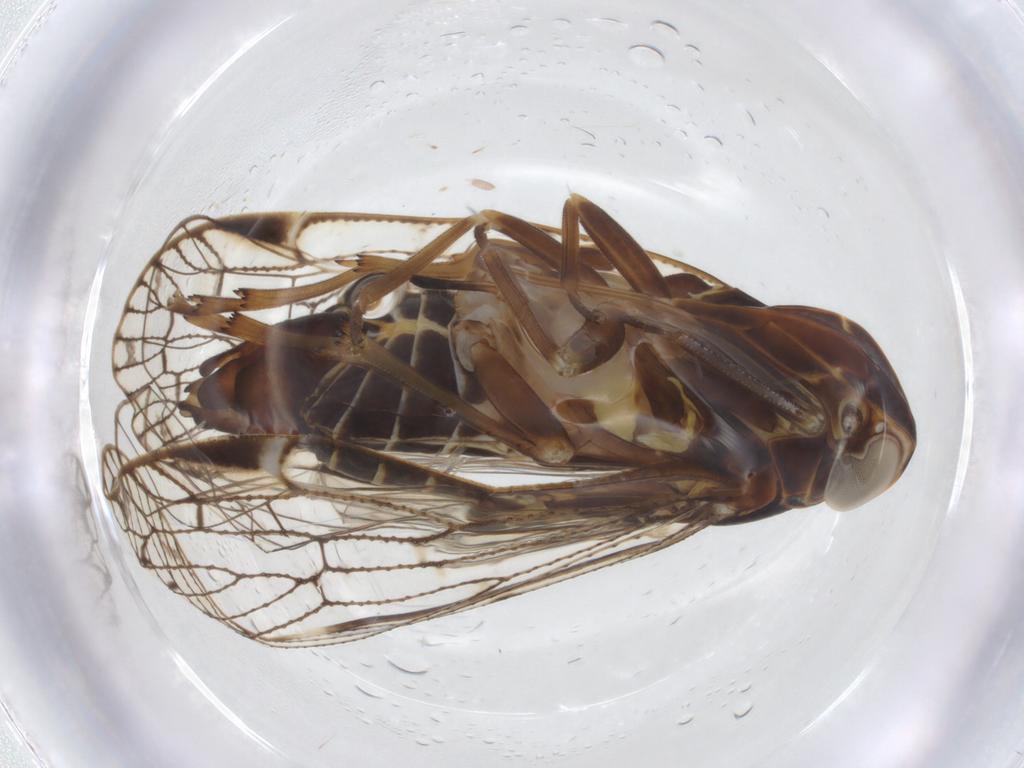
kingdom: Animalia
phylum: Arthropoda
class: Insecta
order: Hemiptera
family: Cixiidae
